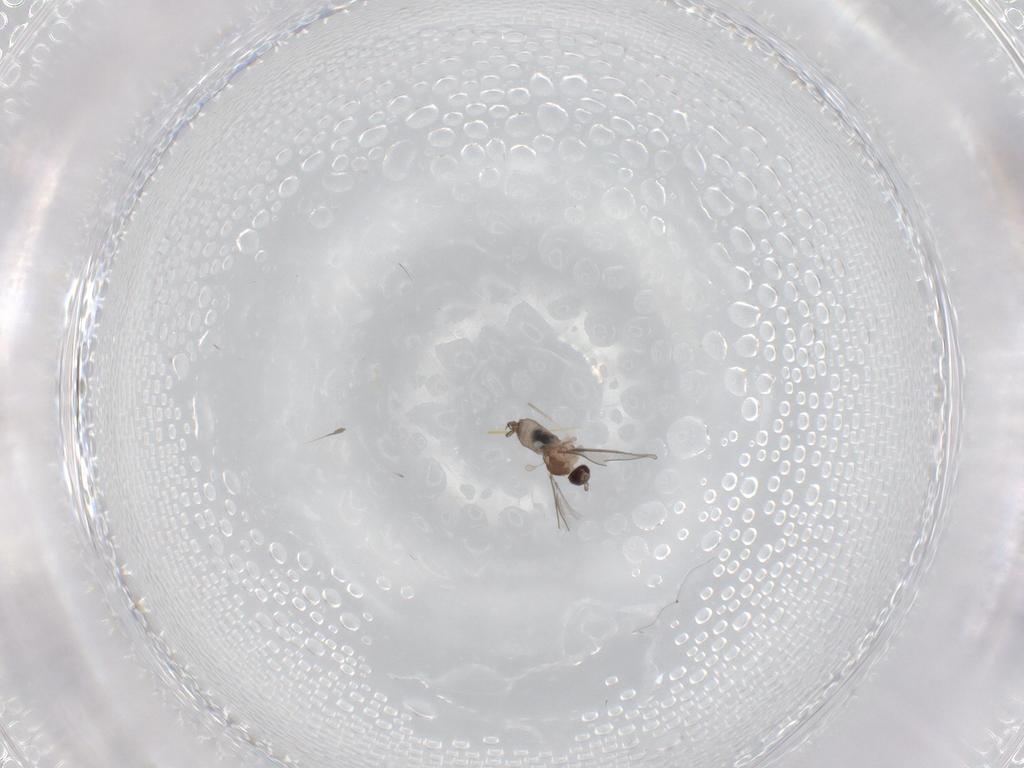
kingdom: Animalia
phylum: Arthropoda
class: Insecta
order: Diptera
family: Cecidomyiidae
